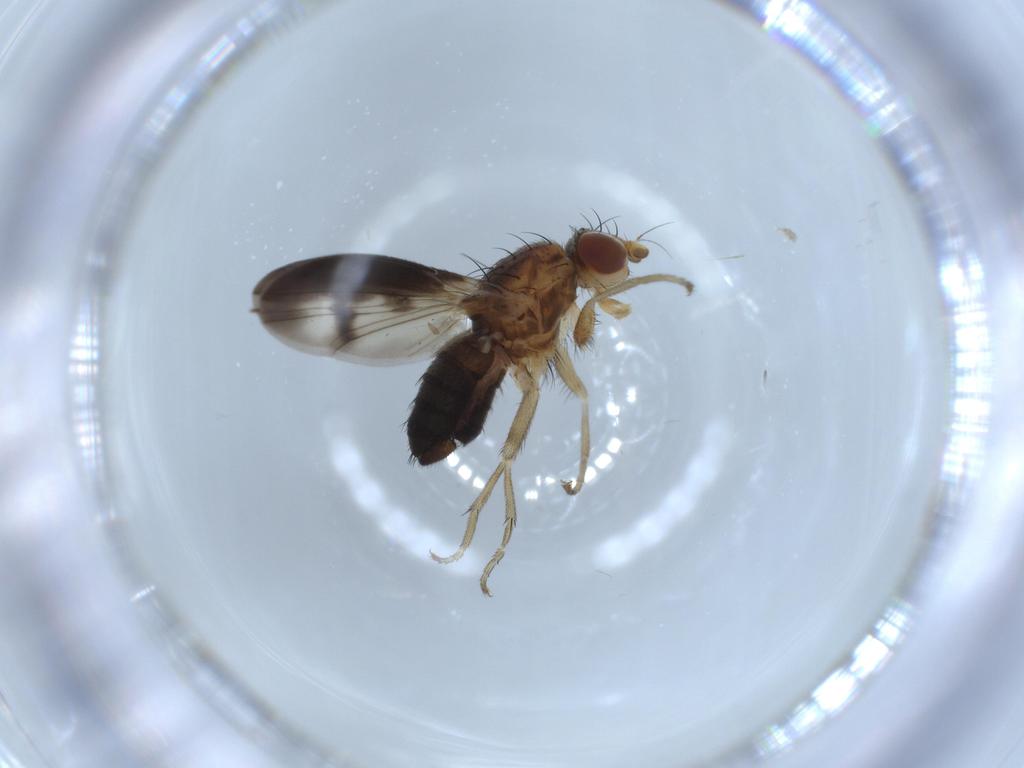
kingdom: Animalia
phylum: Arthropoda
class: Insecta
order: Diptera
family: Heleomyzidae
